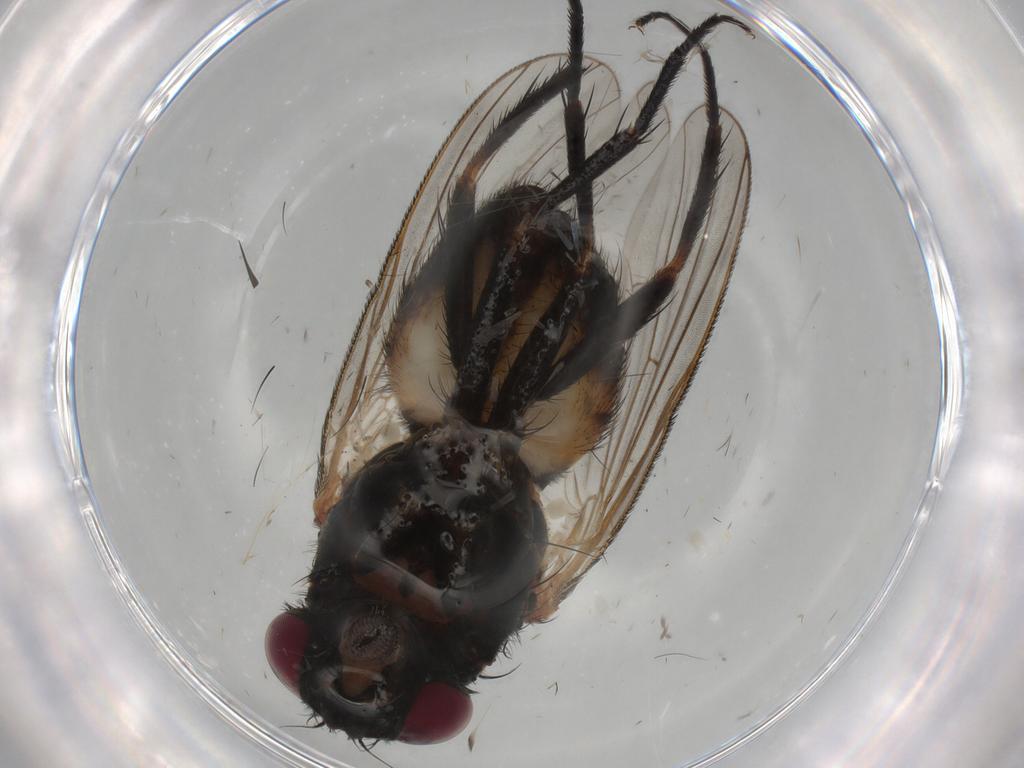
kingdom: Animalia
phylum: Arthropoda
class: Insecta
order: Diptera
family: Fannia
